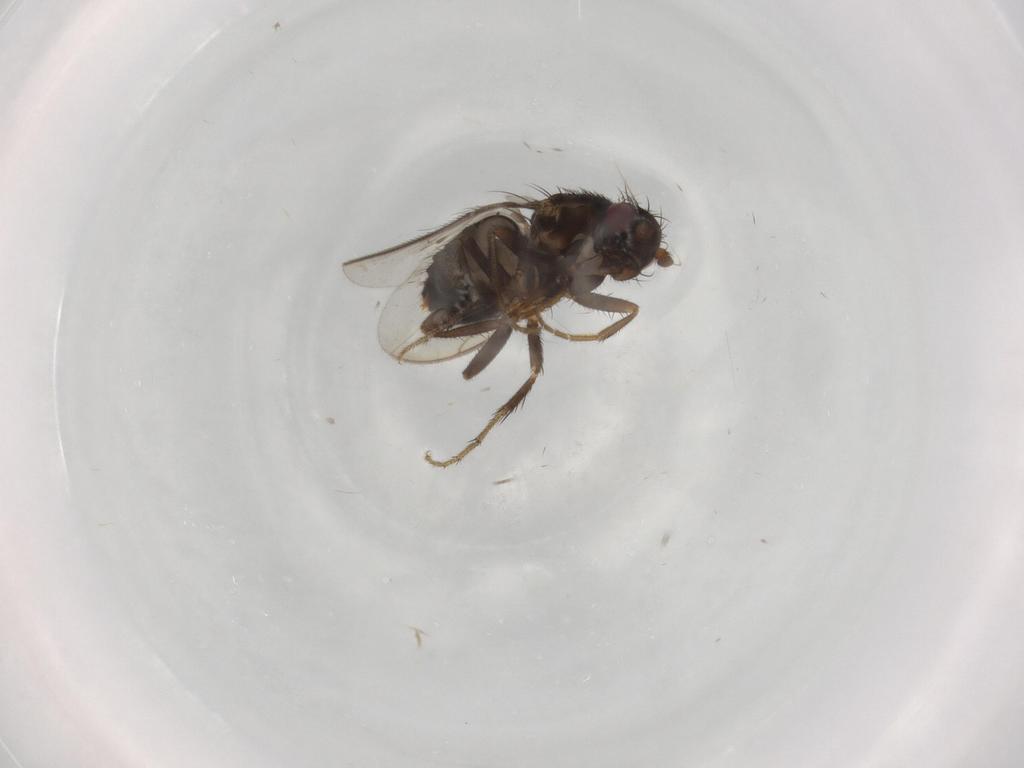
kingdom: Animalia
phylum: Arthropoda
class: Insecta
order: Diptera
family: Sphaeroceridae
